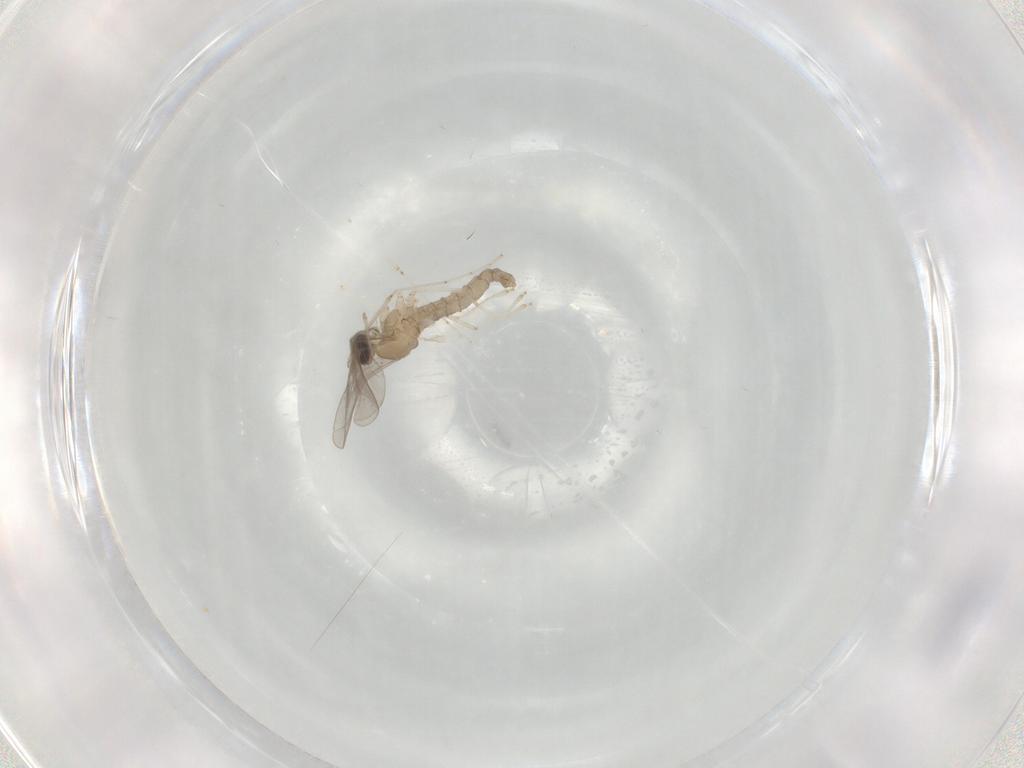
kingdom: Animalia
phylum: Arthropoda
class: Insecta
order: Diptera
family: Cecidomyiidae
